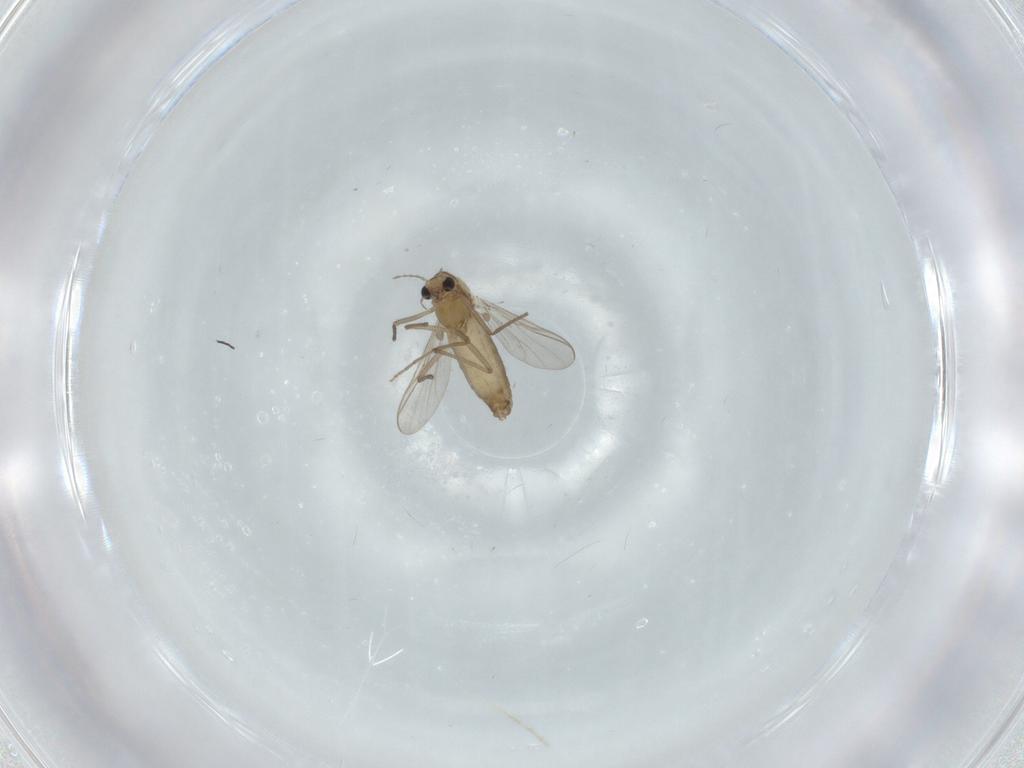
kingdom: Animalia
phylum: Arthropoda
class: Insecta
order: Diptera
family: Chironomidae
